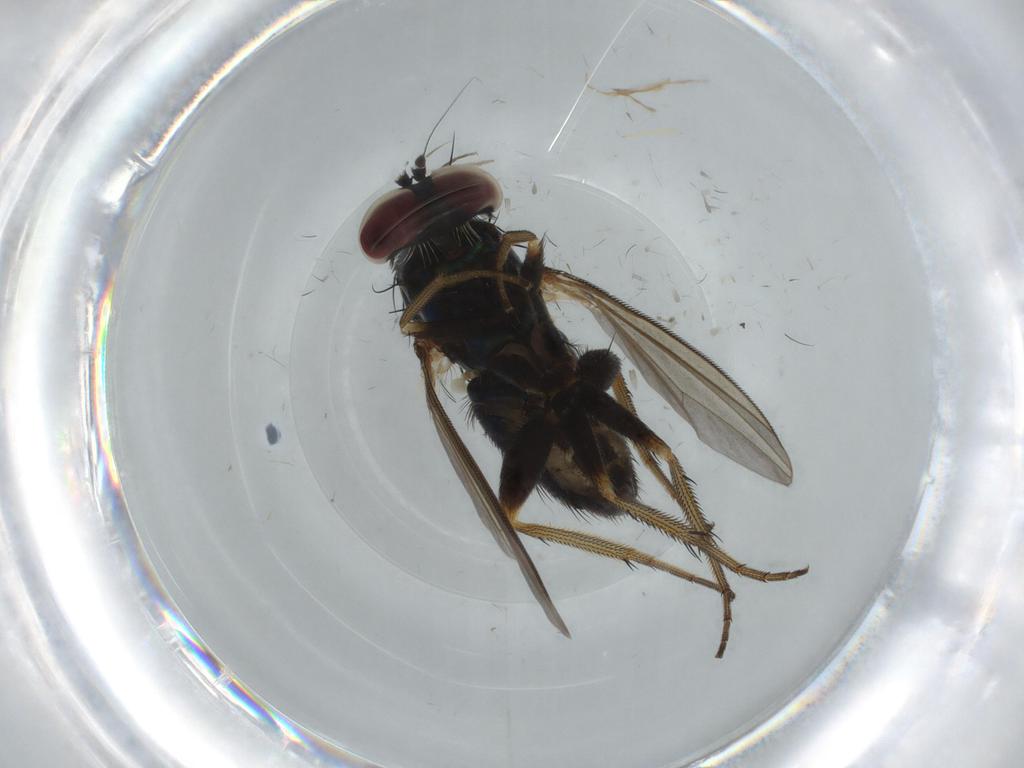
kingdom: Animalia
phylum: Arthropoda
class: Insecta
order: Diptera
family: Dolichopodidae
